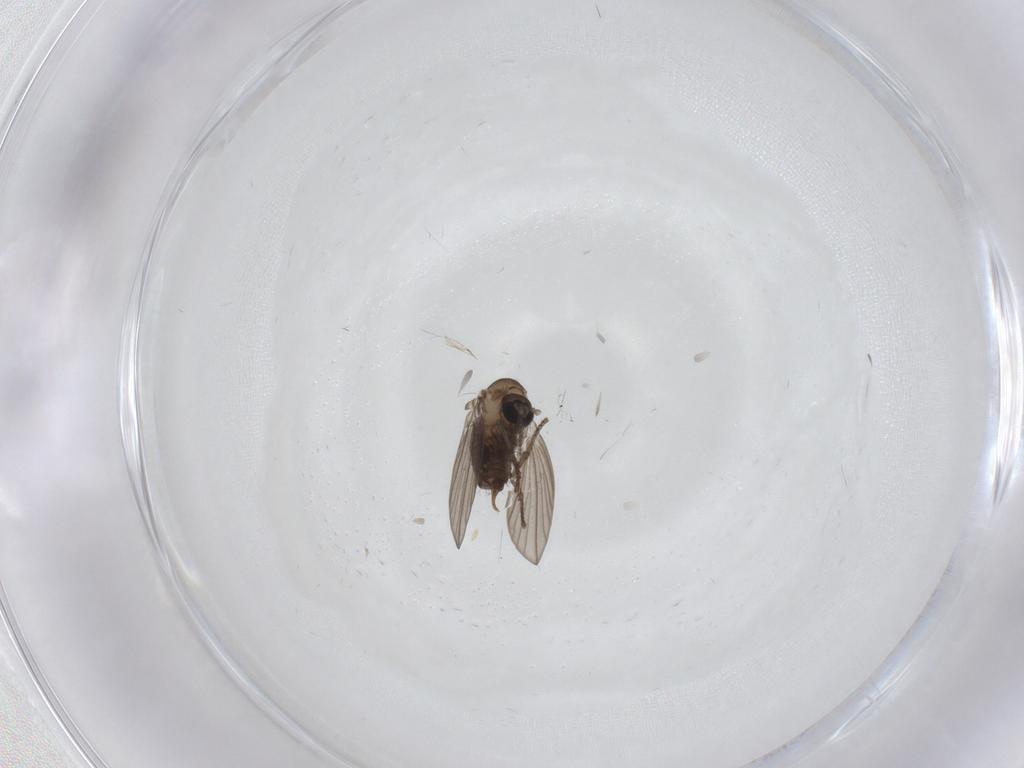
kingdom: Animalia
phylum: Arthropoda
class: Insecta
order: Diptera
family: Psychodidae
